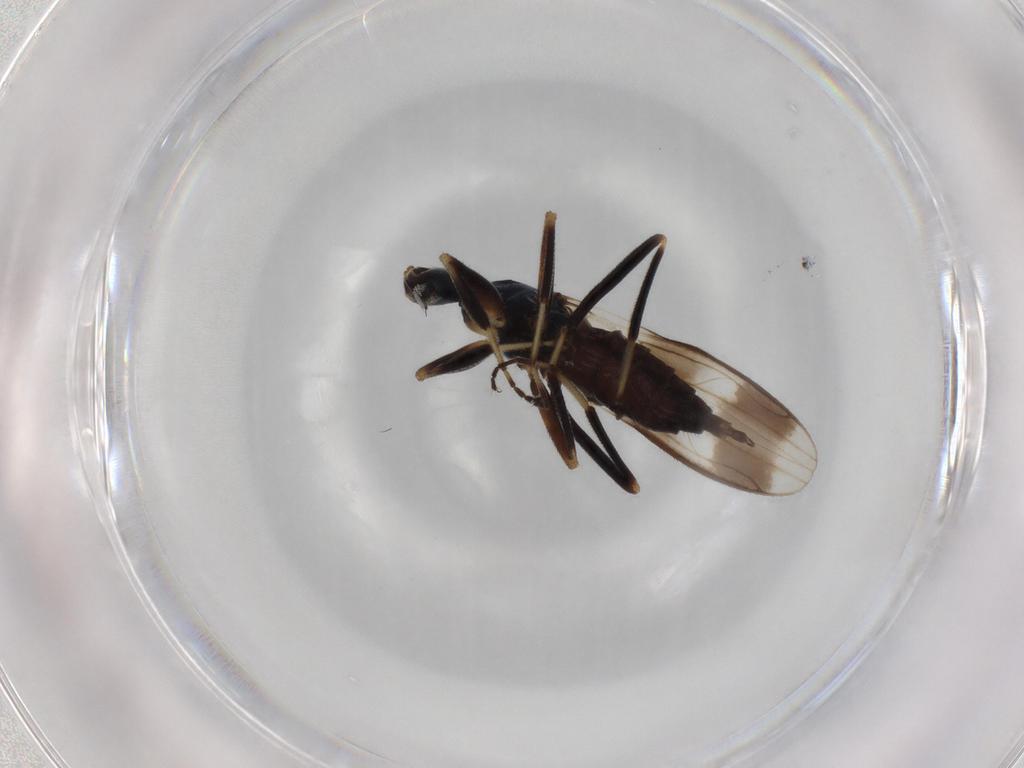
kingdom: Animalia
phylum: Arthropoda
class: Insecta
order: Diptera
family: Hybotidae
